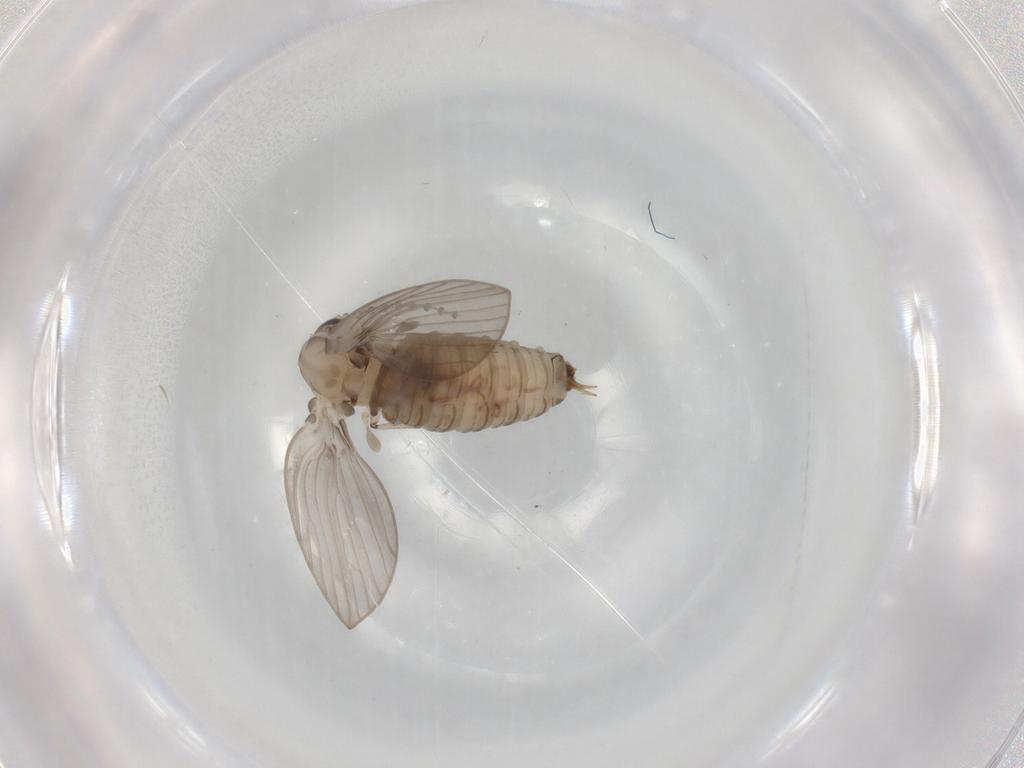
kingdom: Animalia
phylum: Arthropoda
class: Insecta
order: Diptera
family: Psychodidae
